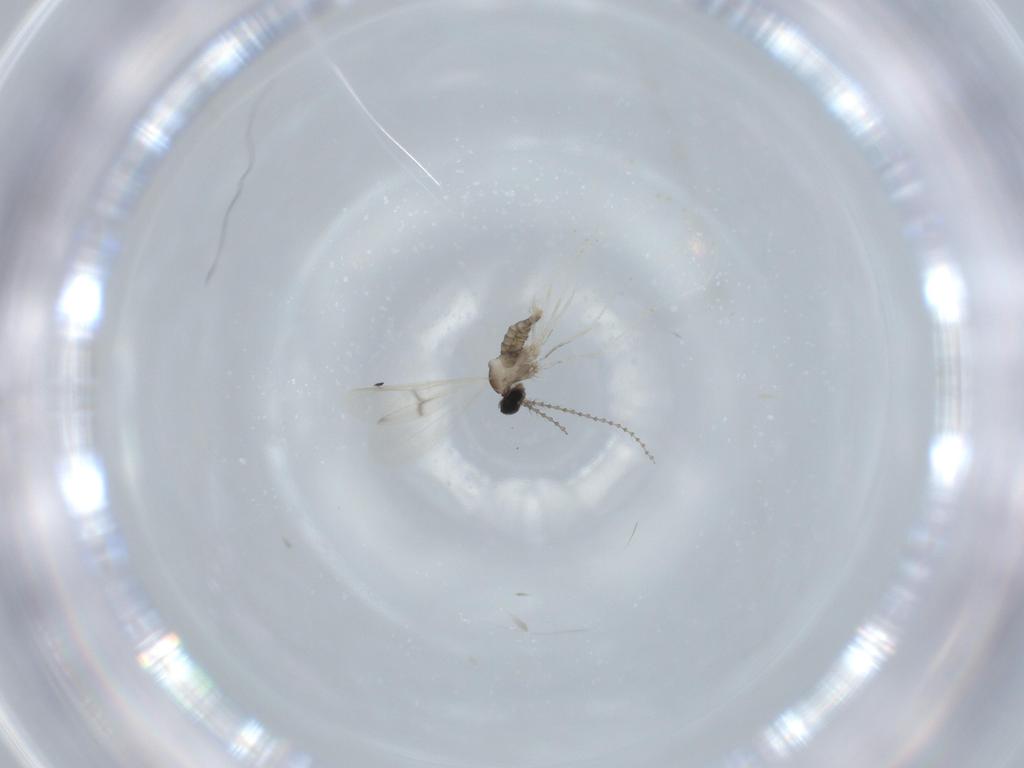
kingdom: Animalia
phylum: Arthropoda
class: Insecta
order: Diptera
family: Cecidomyiidae
